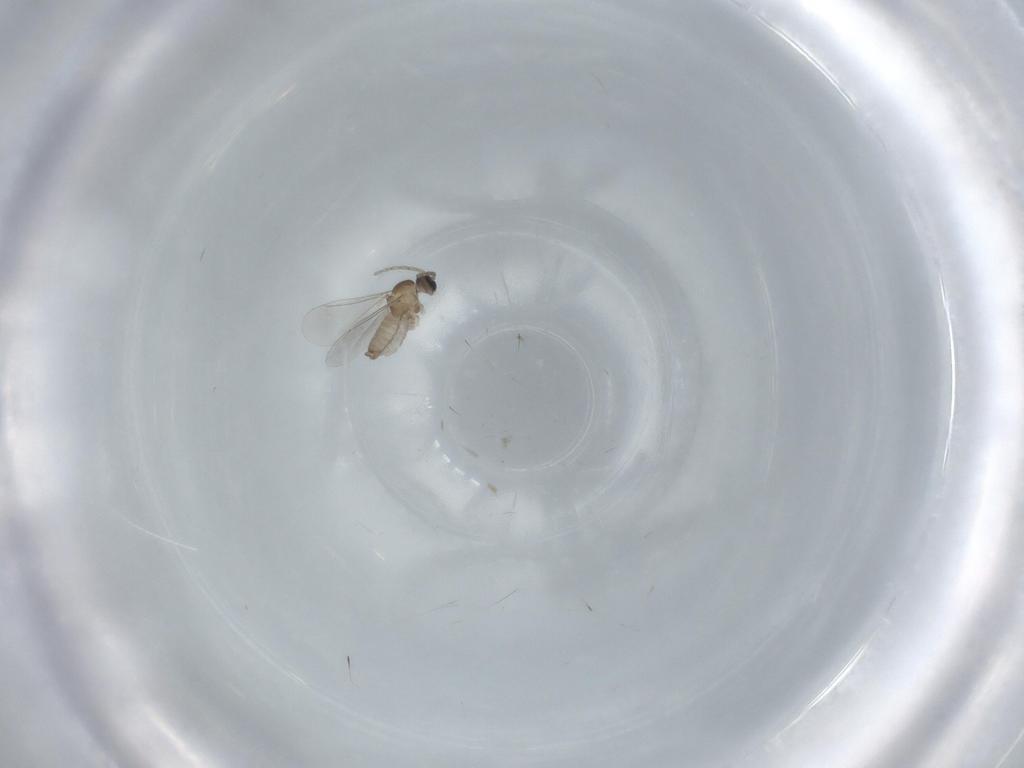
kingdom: Animalia
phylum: Arthropoda
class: Insecta
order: Diptera
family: Cecidomyiidae
